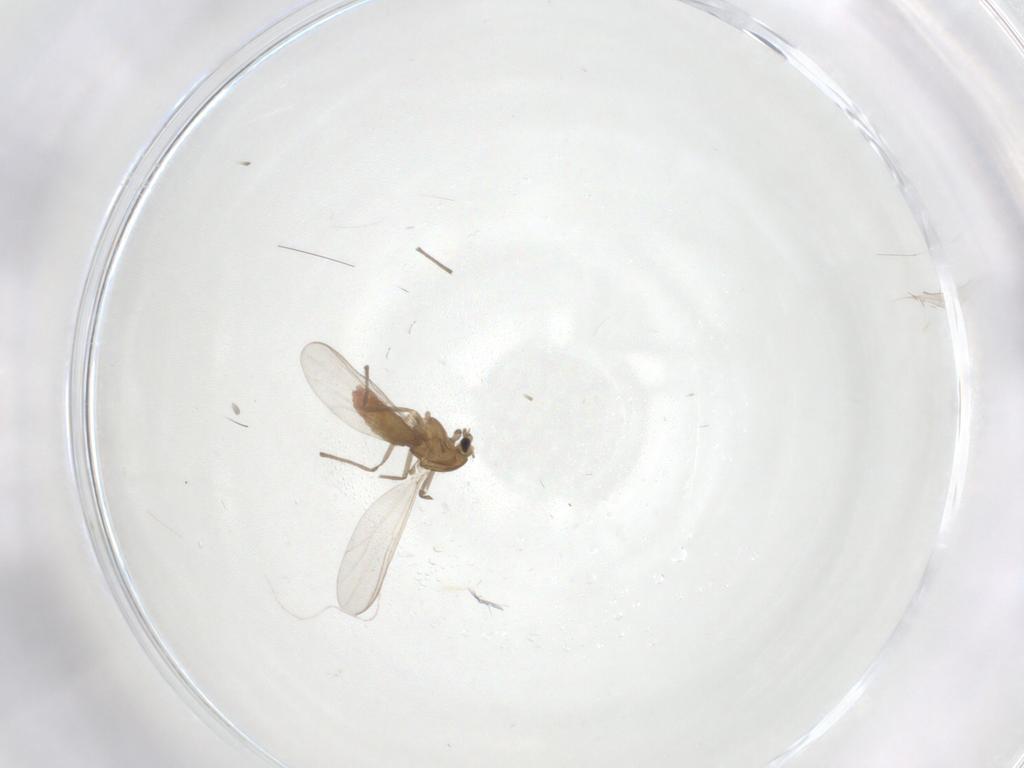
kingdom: Animalia
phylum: Arthropoda
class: Insecta
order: Diptera
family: Chironomidae
